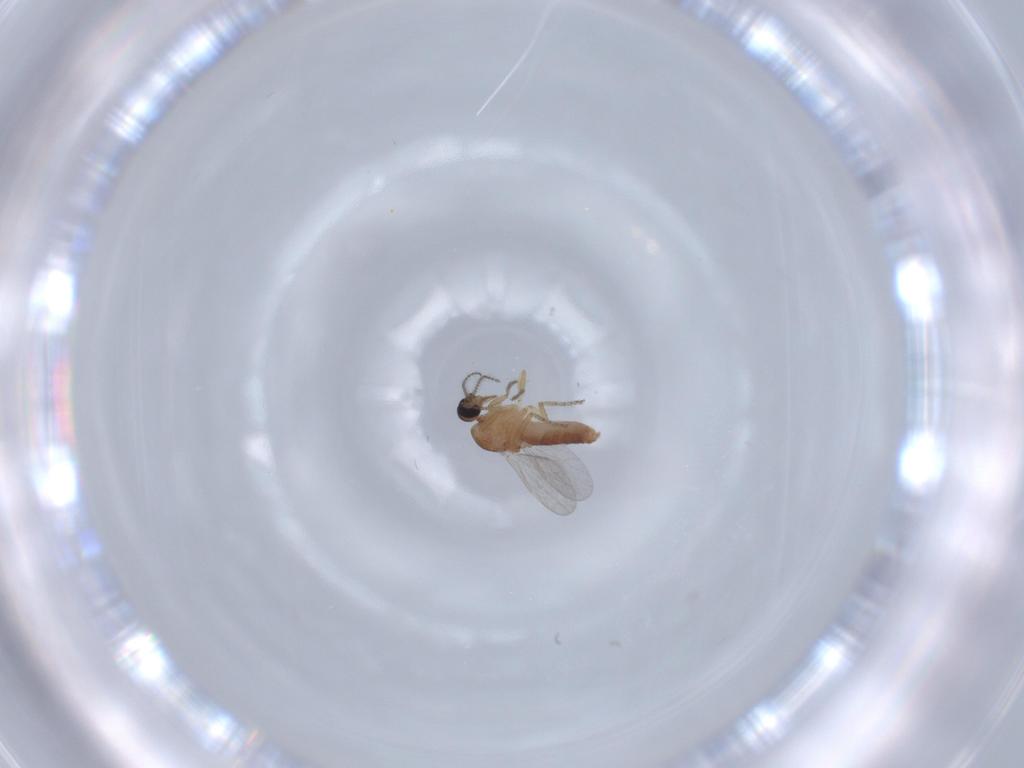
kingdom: Animalia
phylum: Arthropoda
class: Insecta
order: Diptera
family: Ceratopogonidae
